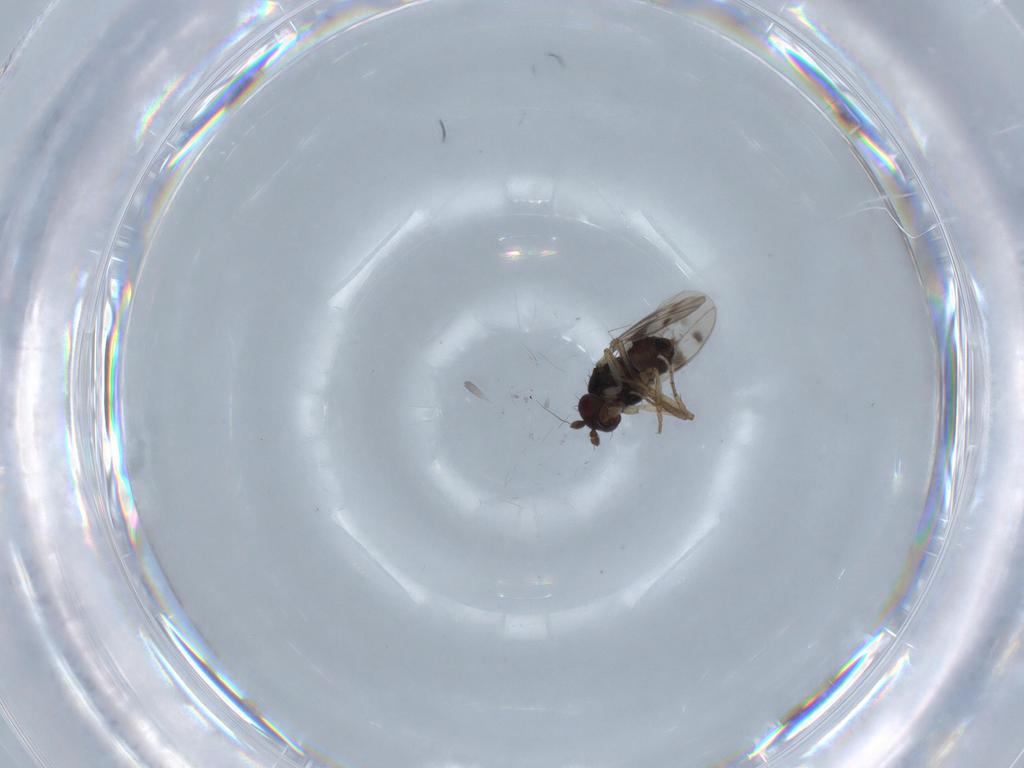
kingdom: Animalia
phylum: Arthropoda
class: Insecta
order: Diptera
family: Sphaeroceridae
